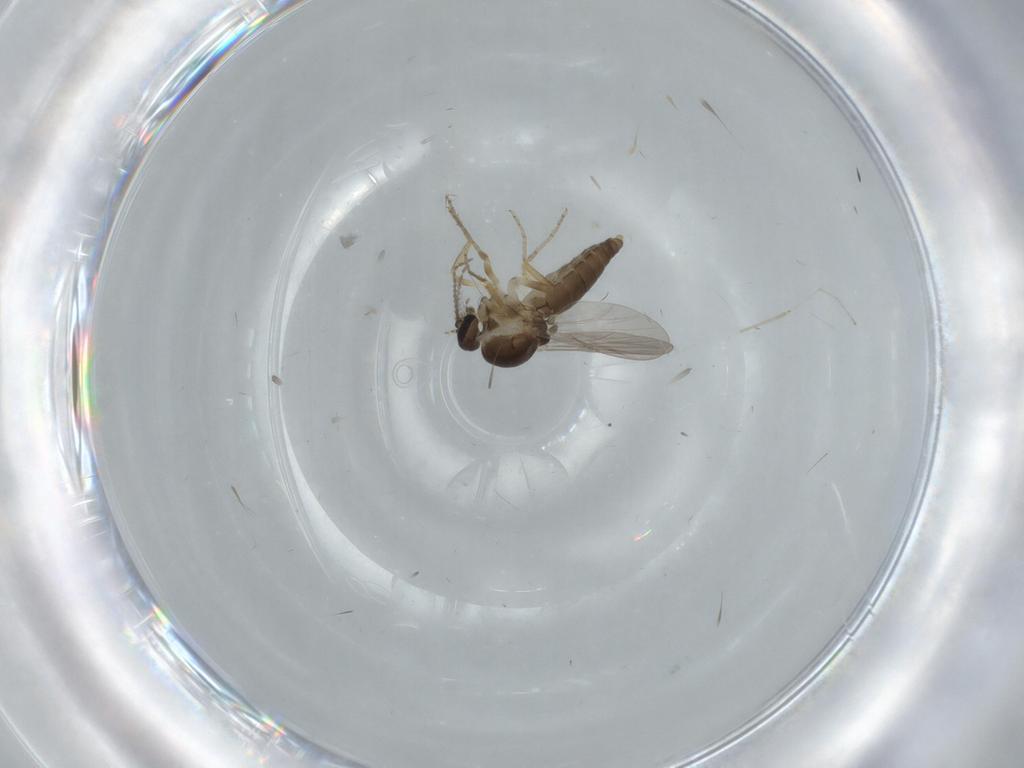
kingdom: Animalia
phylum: Arthropoda
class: Insecta
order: Diptera
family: Ceratopogonidae
